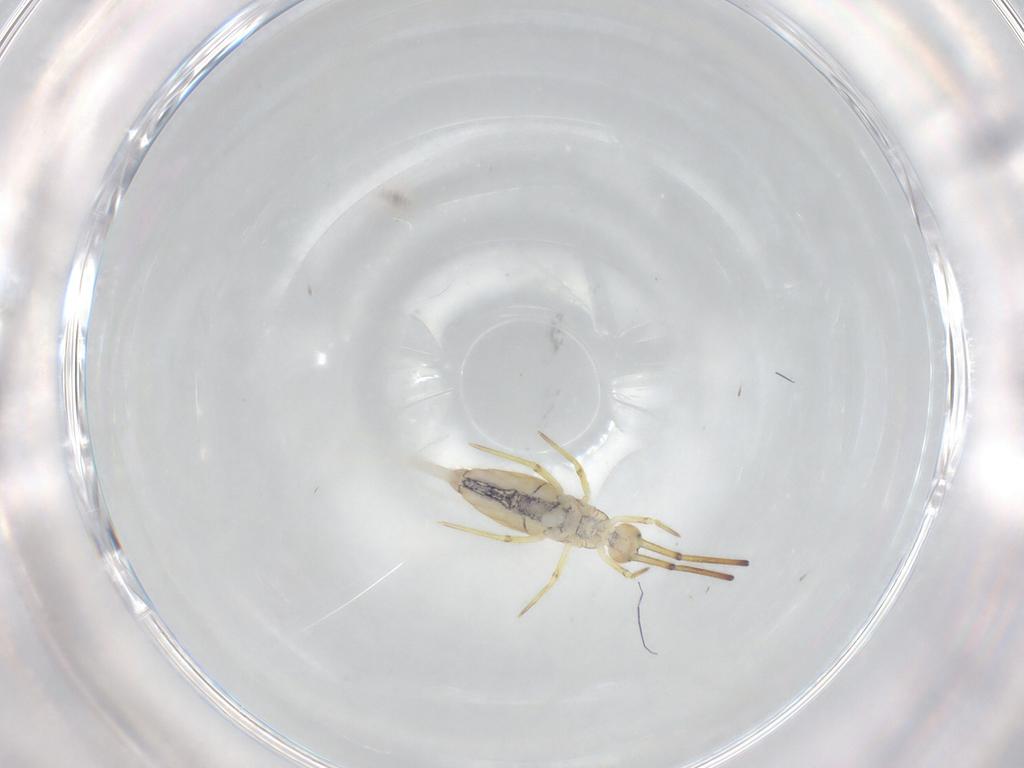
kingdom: Animalia
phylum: Arthropoda
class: Collembola
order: Entomobryomorpha
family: Entomobryidae
